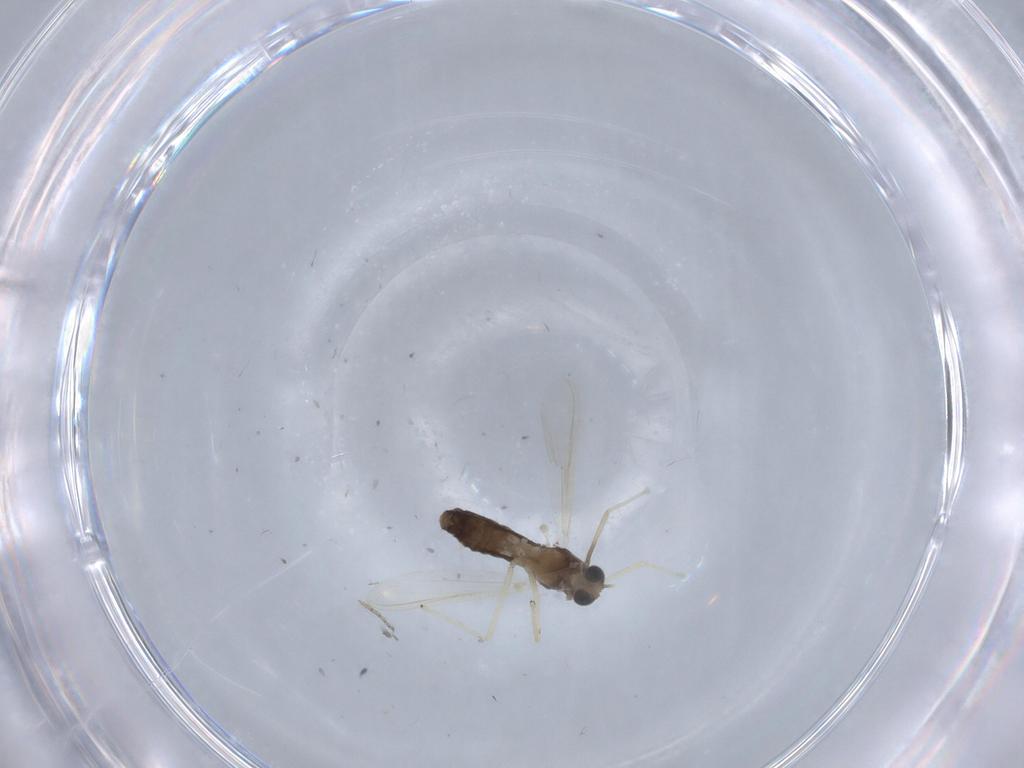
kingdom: Animalia
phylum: Arthropoda
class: Insecta
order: Diptera
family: Chironomidae
